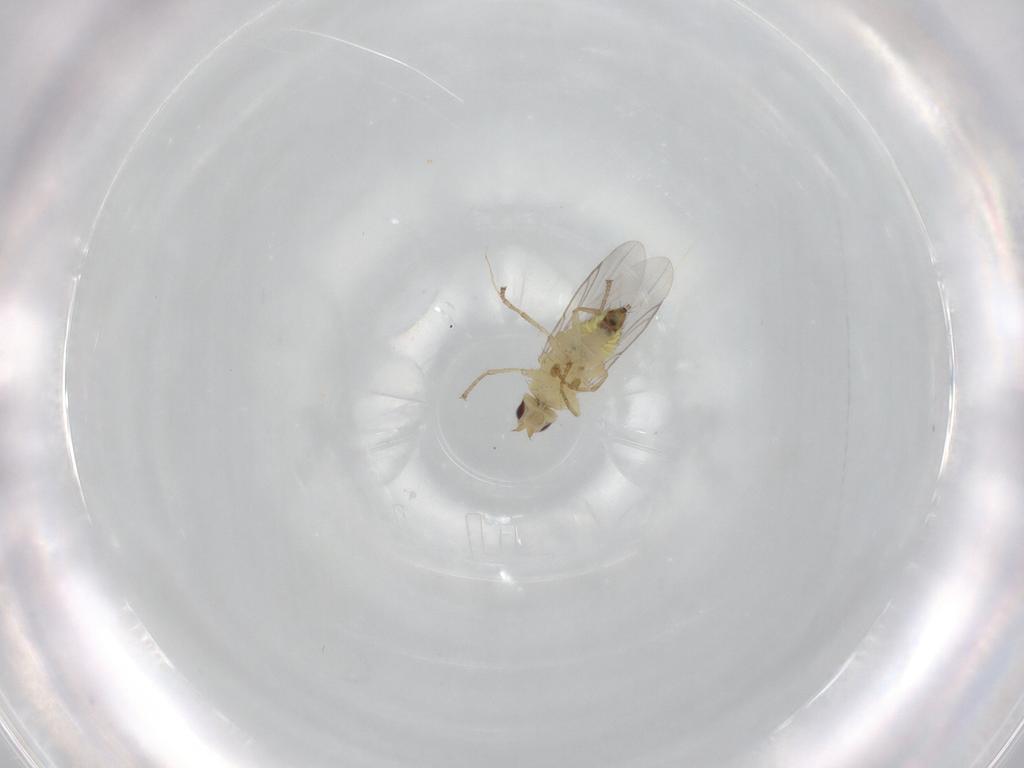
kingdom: Animalia
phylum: Arthropoda
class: Insecta
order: Diptera
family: Agromyzidae
